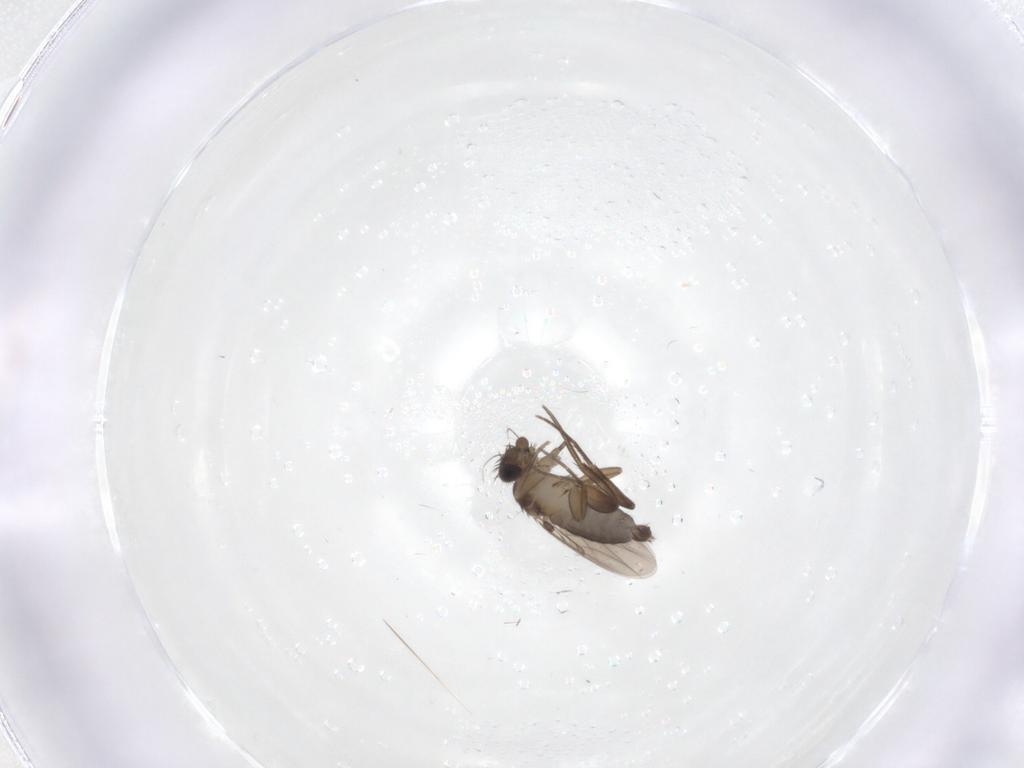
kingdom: Animalia
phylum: Arthropoda
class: Insecta
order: Diptera
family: Phoridae
